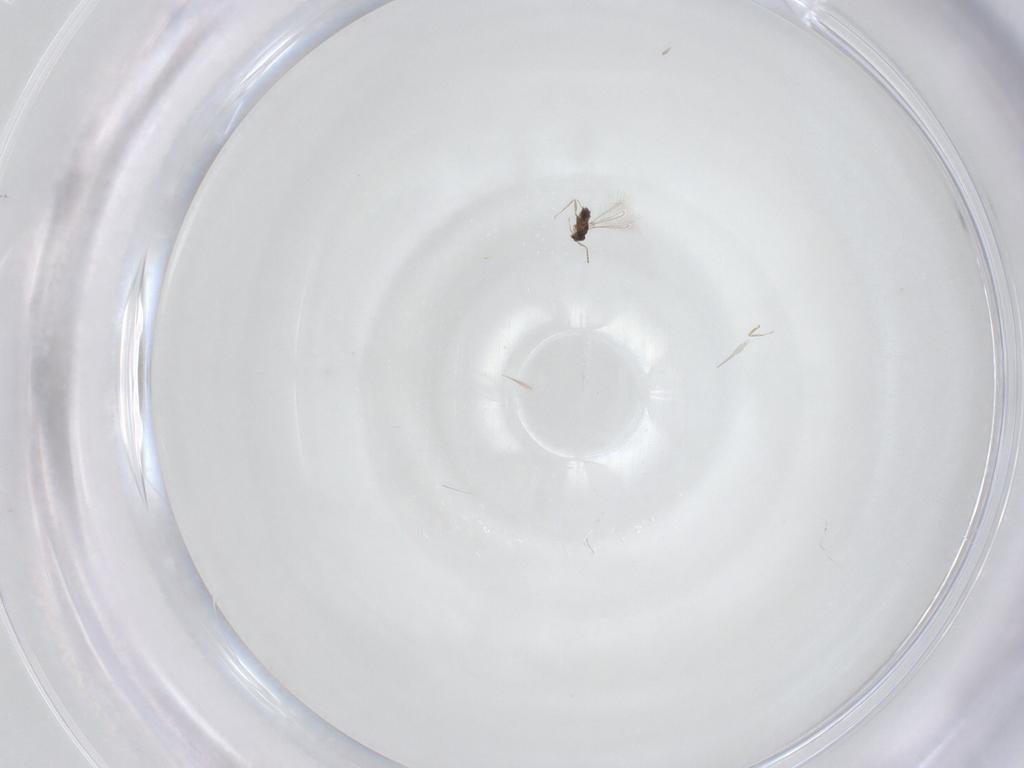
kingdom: Animalia
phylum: Arthropoda
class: Insecta
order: Hymenoptera
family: Mymaridae
